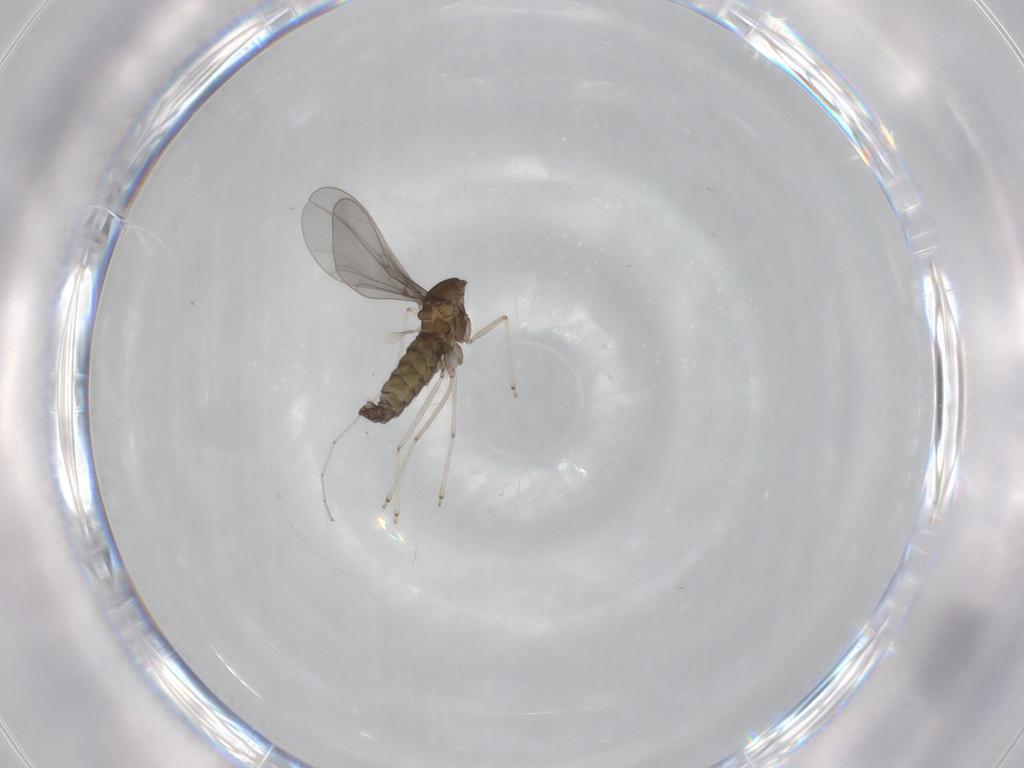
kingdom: Animalia
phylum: Arthropoda
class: Insecta
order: Diptera
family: Cecidomyiidae
